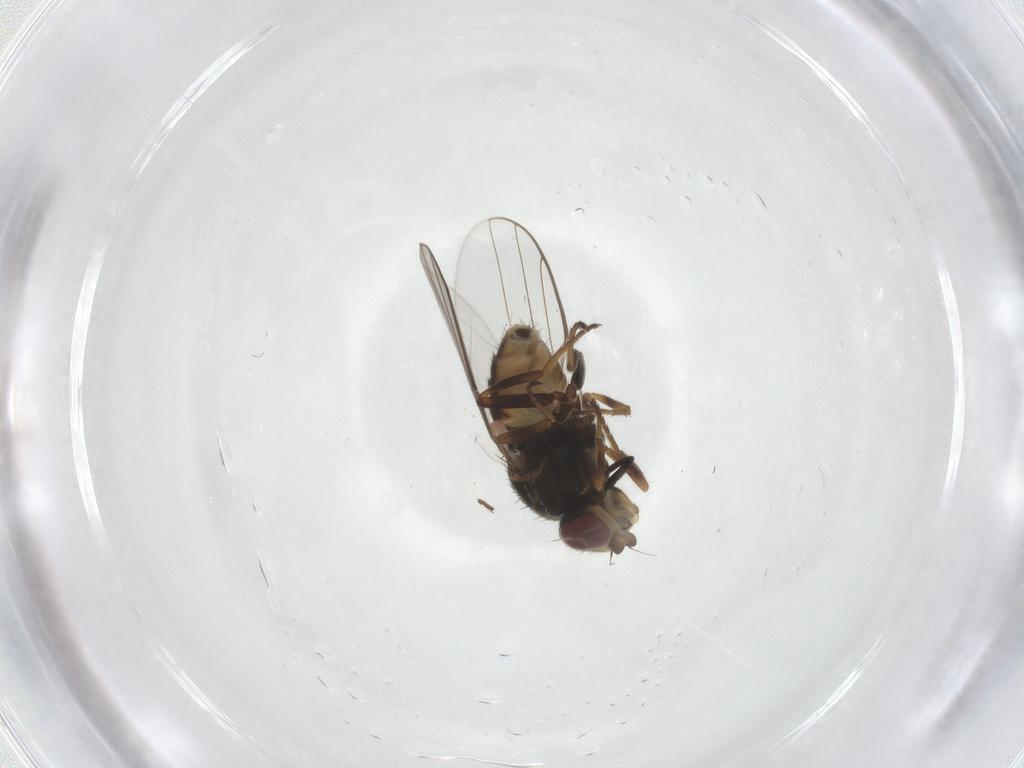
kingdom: Animalia
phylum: Arthropoda
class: Insecta
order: Diptera
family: Chloropidae
